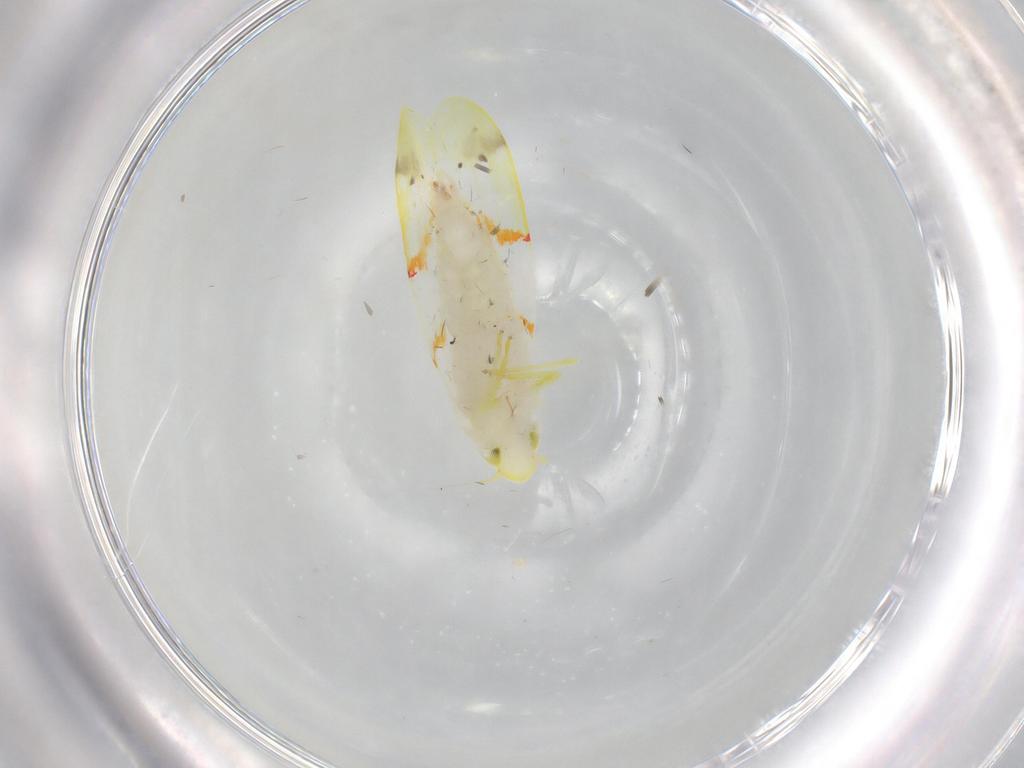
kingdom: Animalia
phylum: Arthropoda
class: Insecta
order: Hemiptera
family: Cicadellidae
